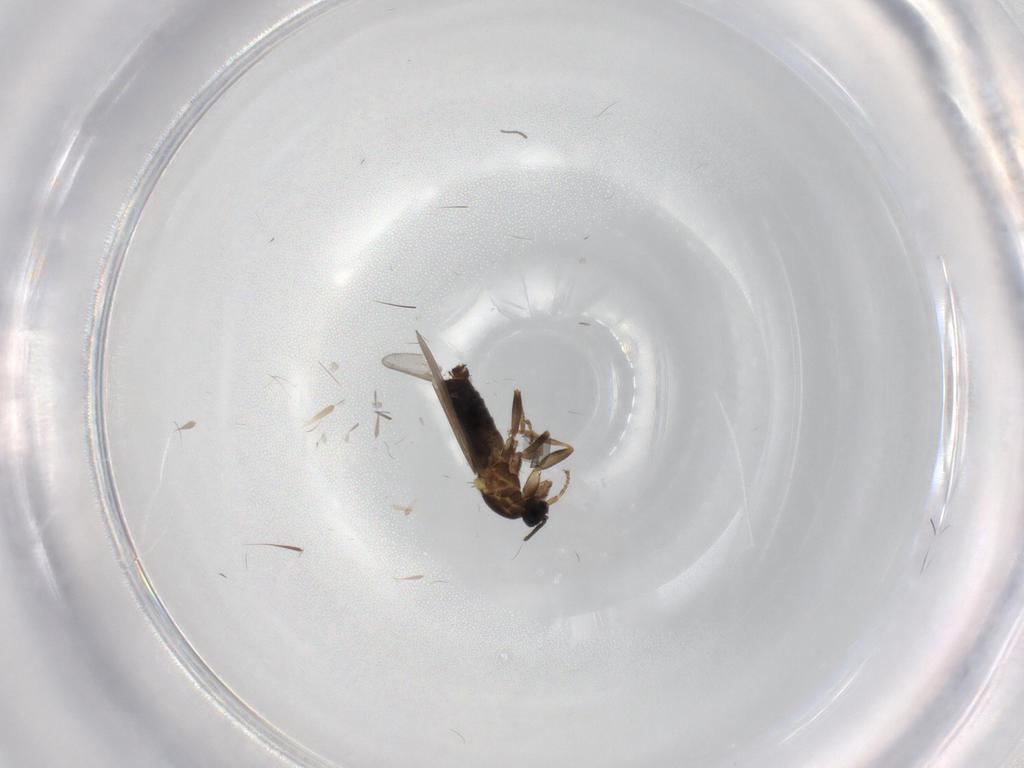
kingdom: Animalia
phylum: Arthropoda
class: Insecta
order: Diptera
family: Scatopsidae
